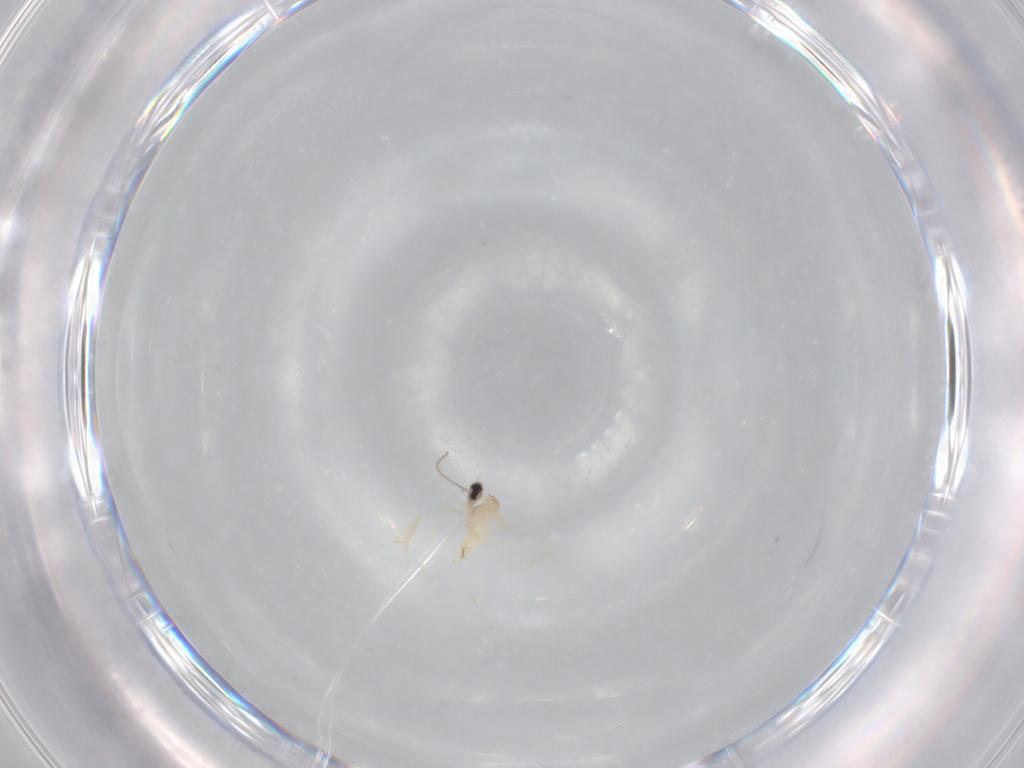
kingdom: Animalia
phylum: Arthropoda
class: Insecta
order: Diptera
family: Cecidomyiidae
